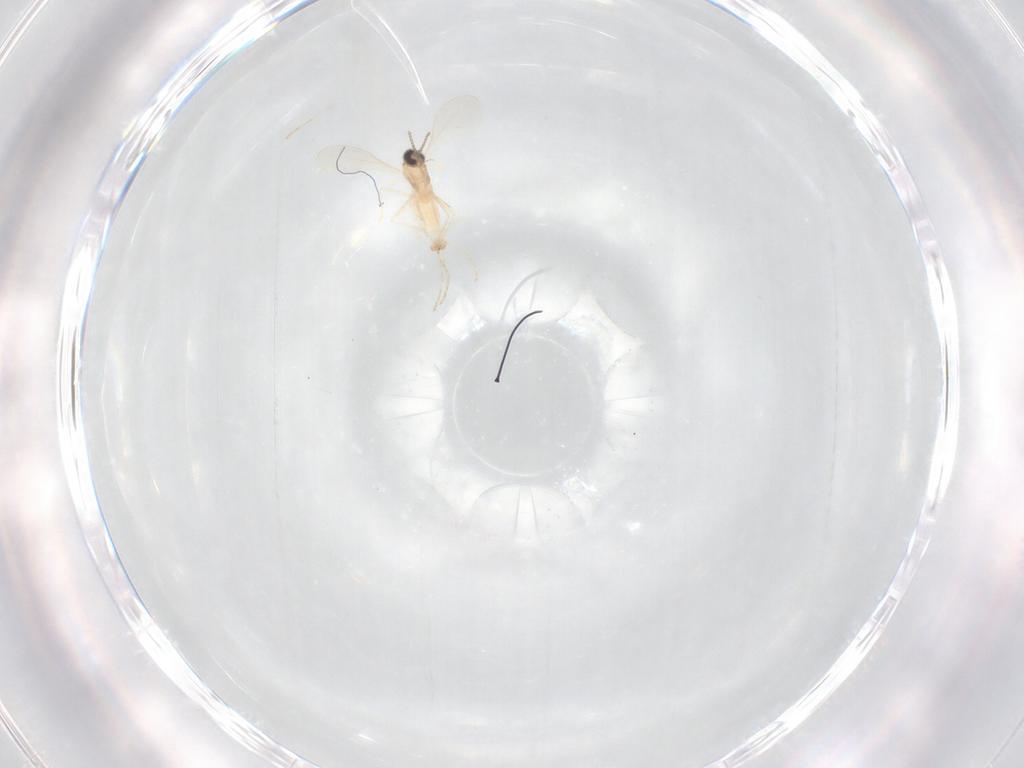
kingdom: Animalia
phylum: Arthropoda
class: Insecta
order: Diptera
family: Cecidomyiidae
